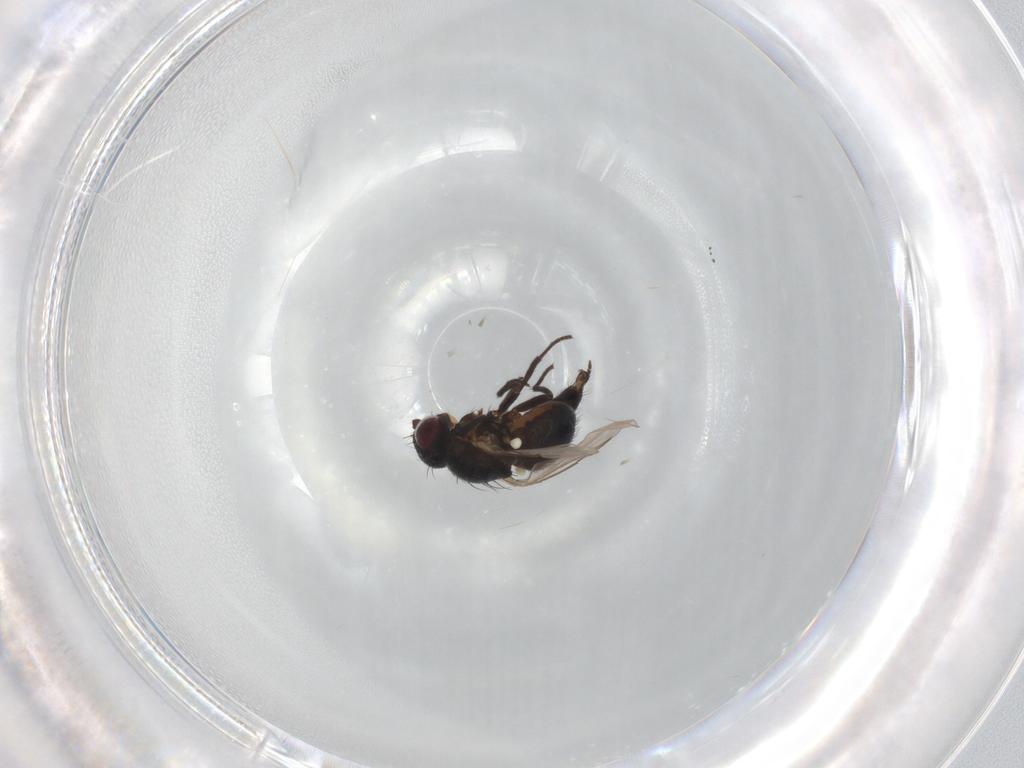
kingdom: Animalia
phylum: Arthropoda
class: Insecta
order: Diptera
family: Agromyzidae
